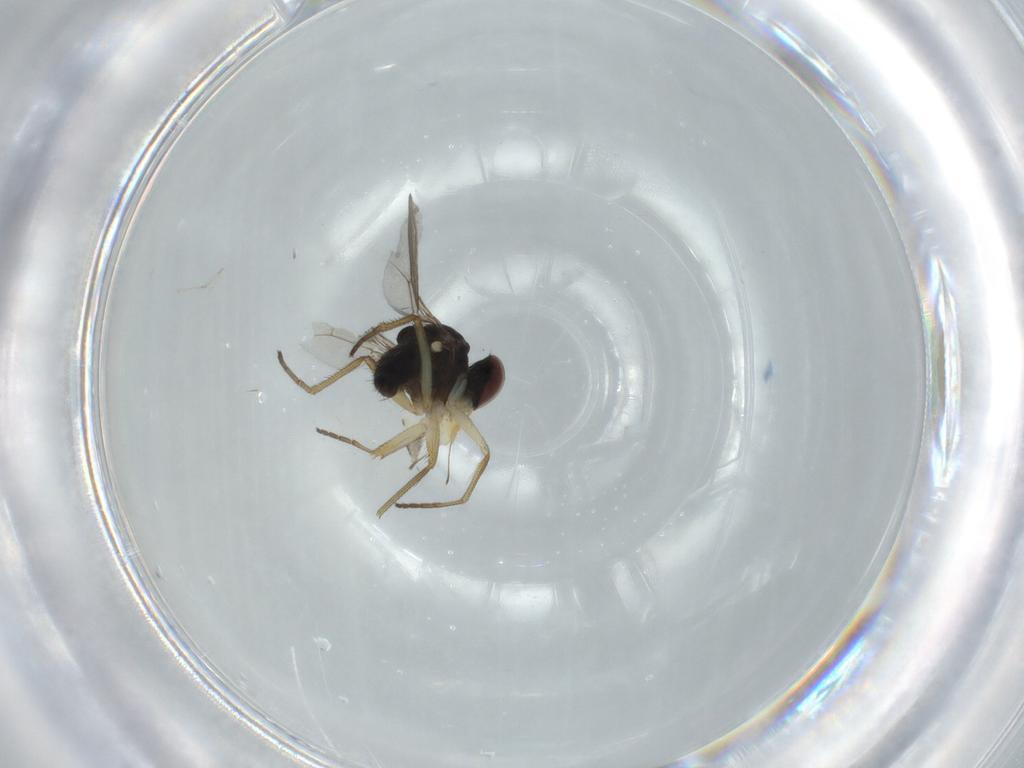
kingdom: Animalia
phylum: Arthropoda
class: Insecta
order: Diptera
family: Dolichopodidae
